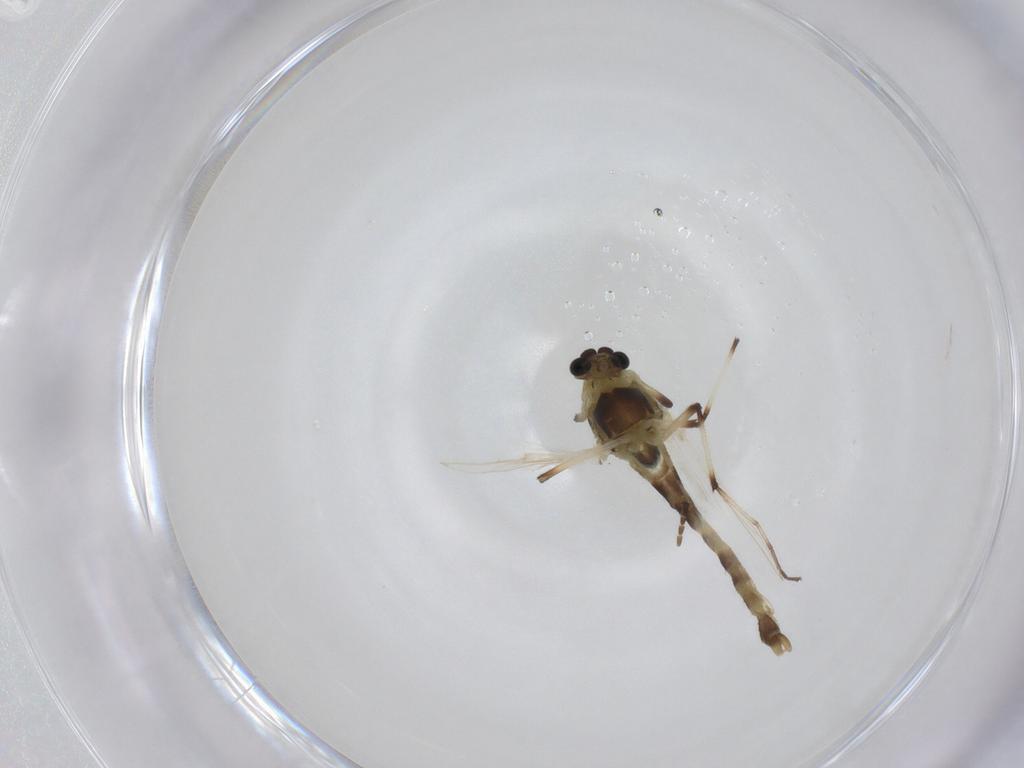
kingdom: Animalia
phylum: Arthropoda
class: Insecta
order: Diptera
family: Chironomidae
